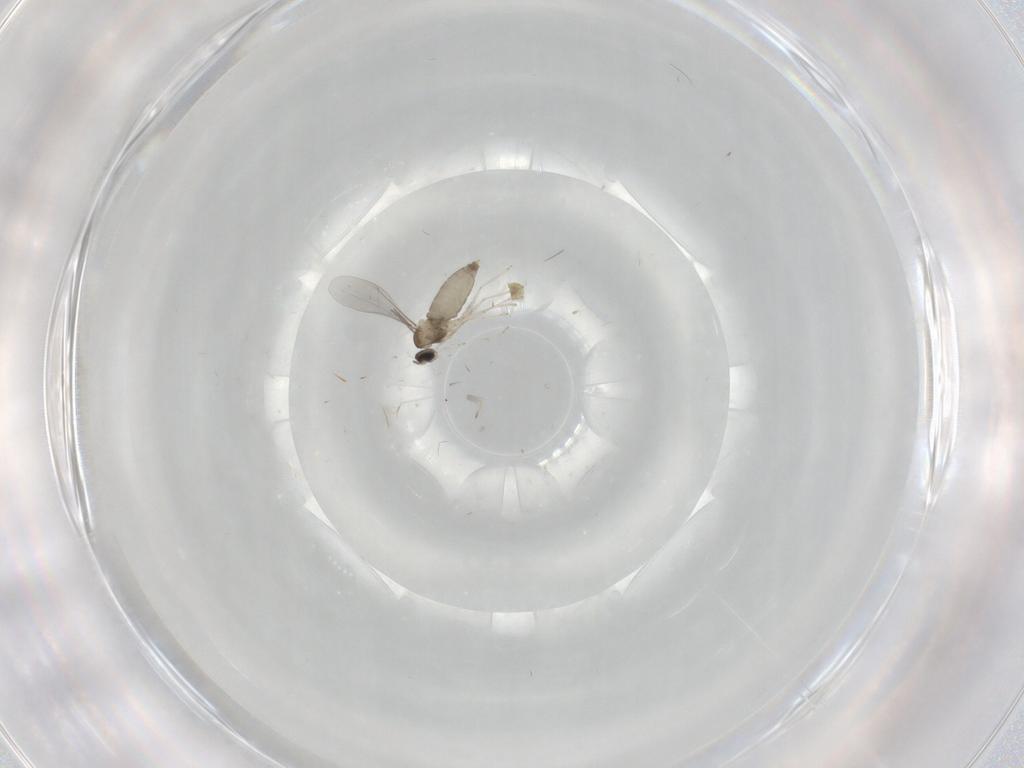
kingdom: Animalia
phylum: Arthropoda
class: Insecta
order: Diptera
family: Cecidomyiidae
